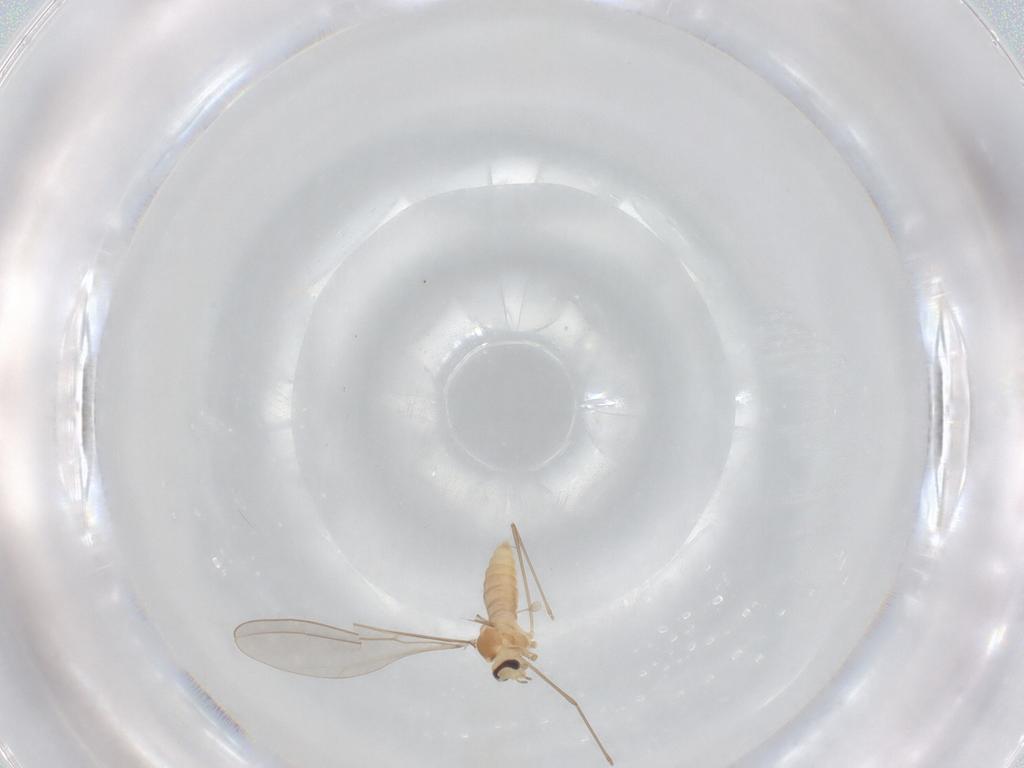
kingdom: Animalia
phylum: Arthropoda
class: Insecta
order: Diptera
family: Cecidomyiidae
